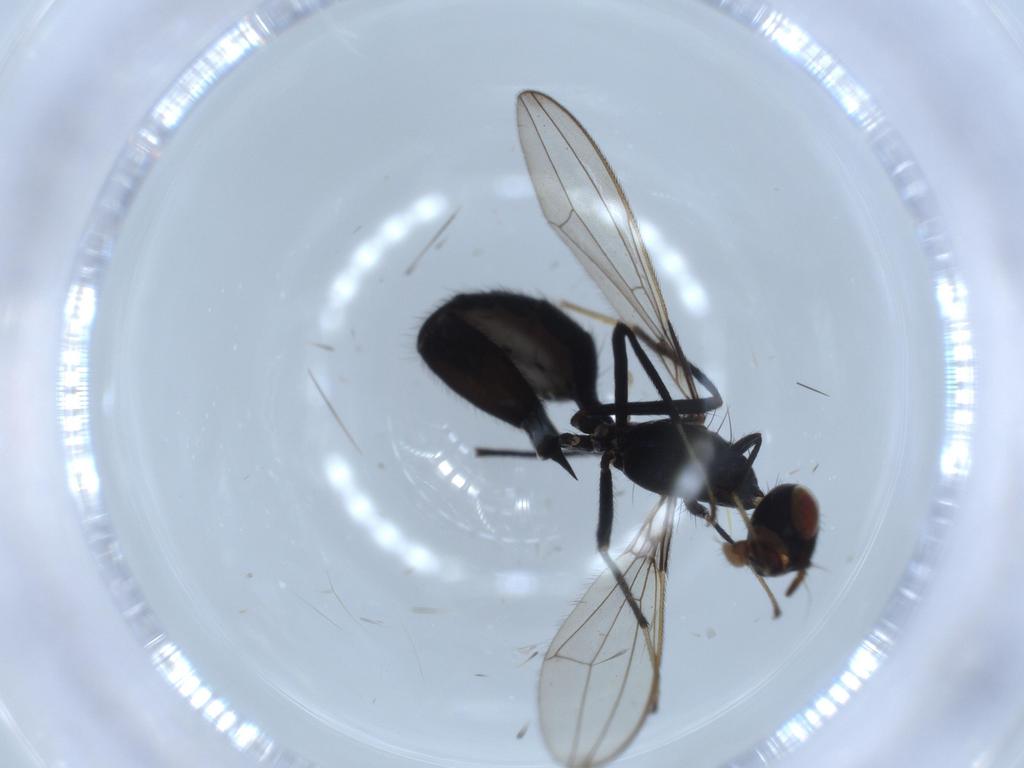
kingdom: Animalia
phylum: Arthropoda
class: Insecta
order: Diptera
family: Richardiidae
